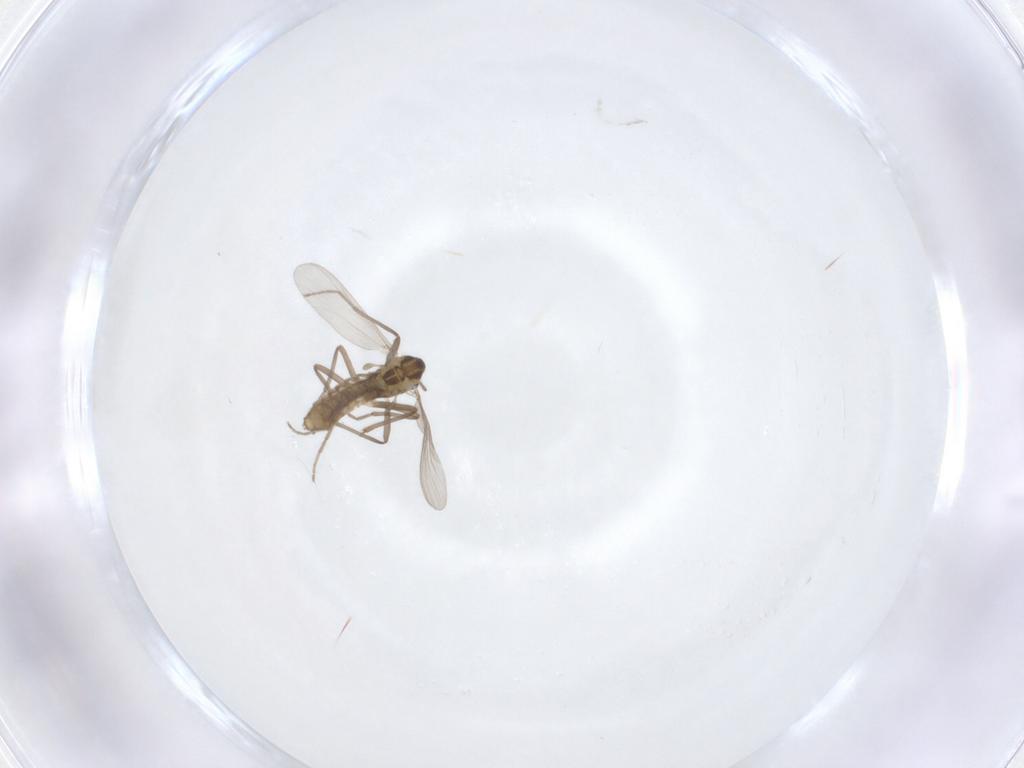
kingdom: Animalia
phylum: Arthropoda
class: Insecta
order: Diptera
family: Chironomidae
